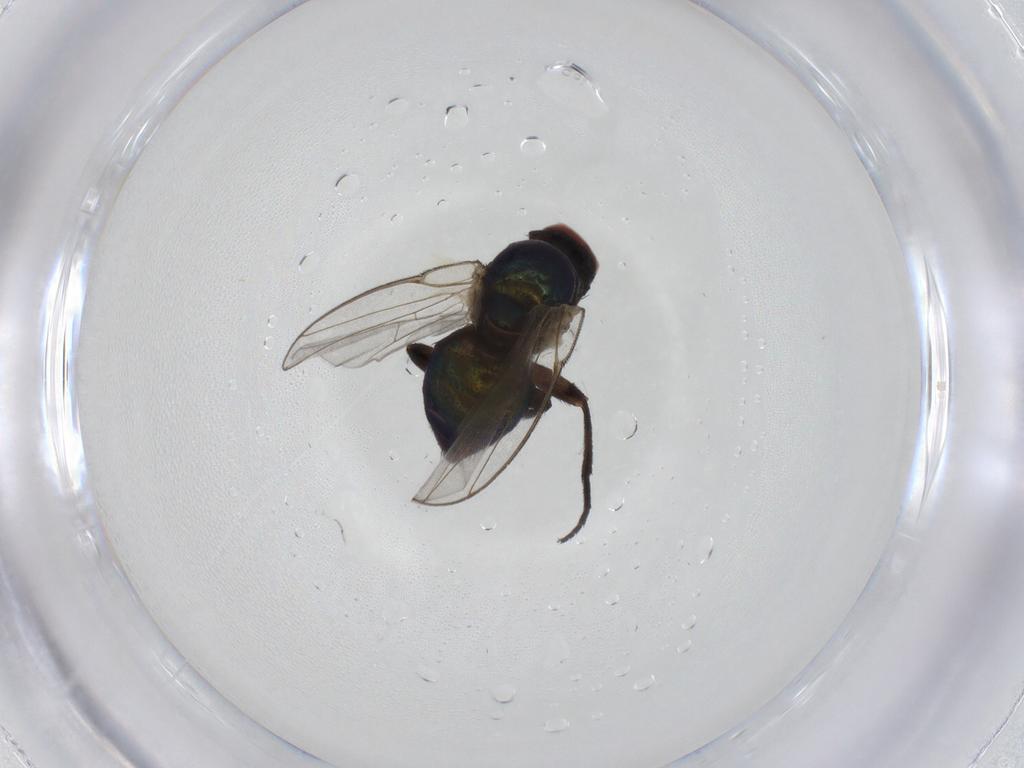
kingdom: Animalia
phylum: Arthropoda
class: Insecta
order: Diptera
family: Agromyzidae
